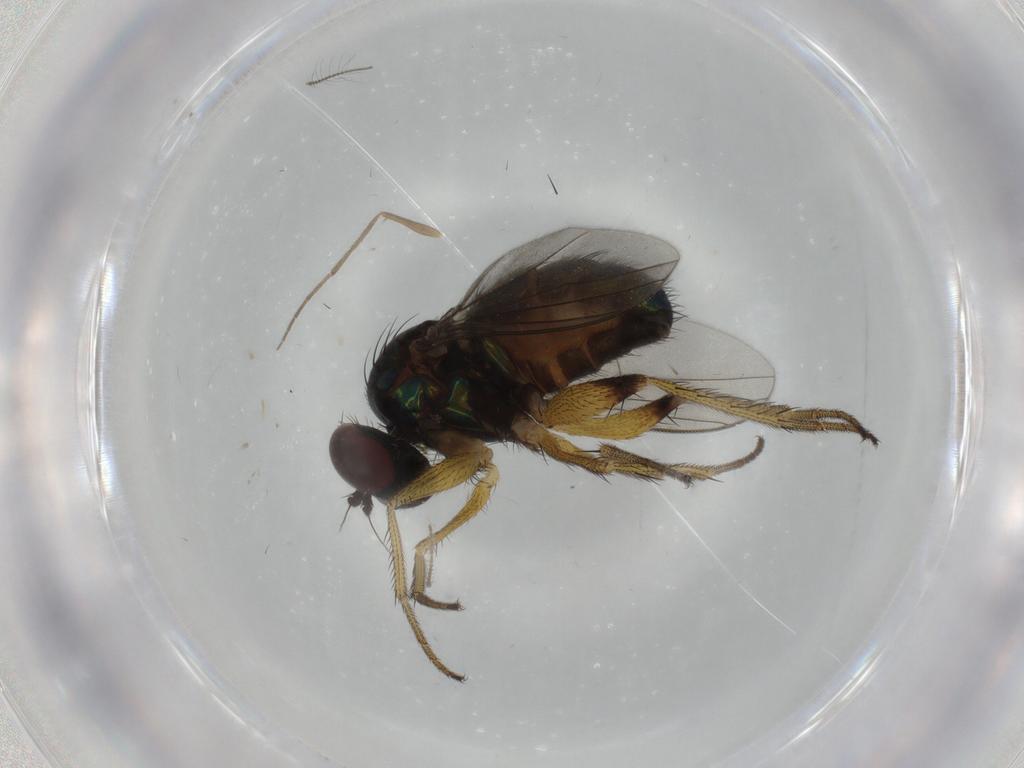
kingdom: Animalia
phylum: Arthropoda
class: Insecta
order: Diptera
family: Dolichopodidae
